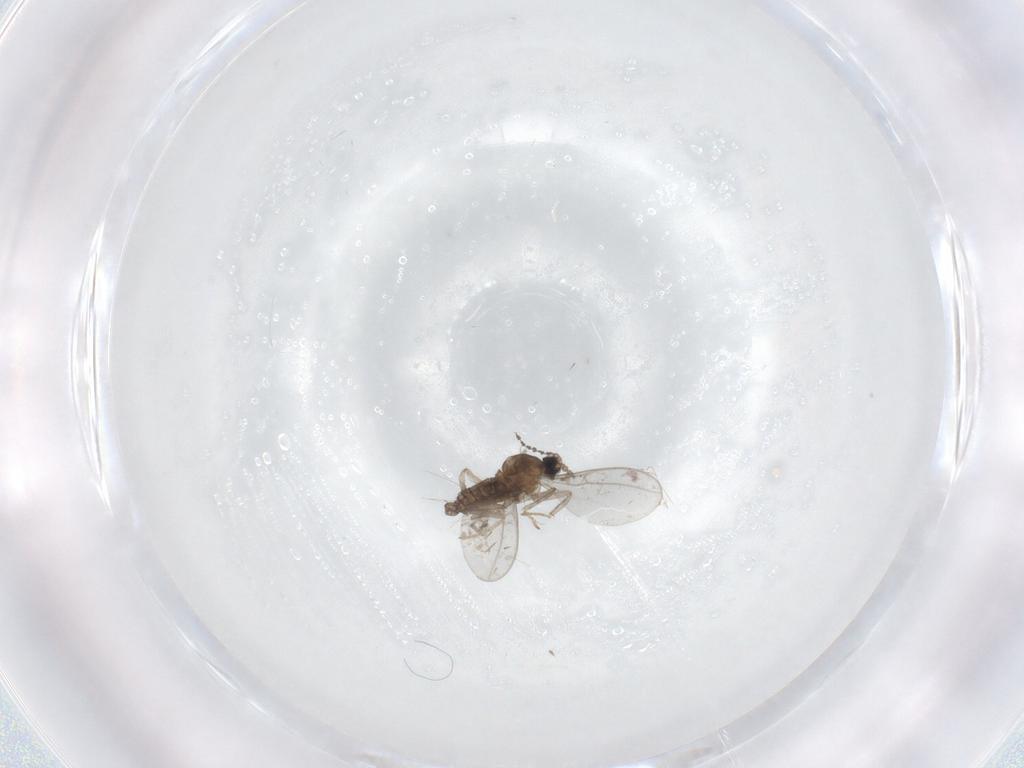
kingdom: Animalia
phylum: Arthropoda
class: Insecta
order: Diptera
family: Cecidomyiidae
